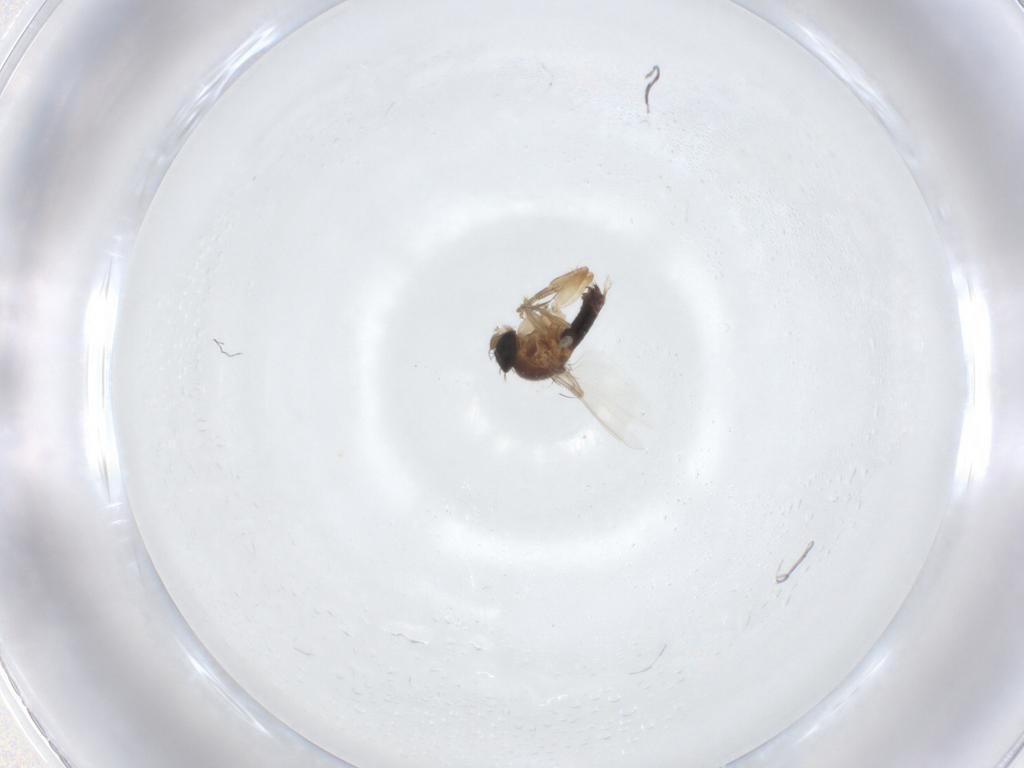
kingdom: Animalia
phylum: Arthropoda
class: Insecta
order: Diptera
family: Phoridae
